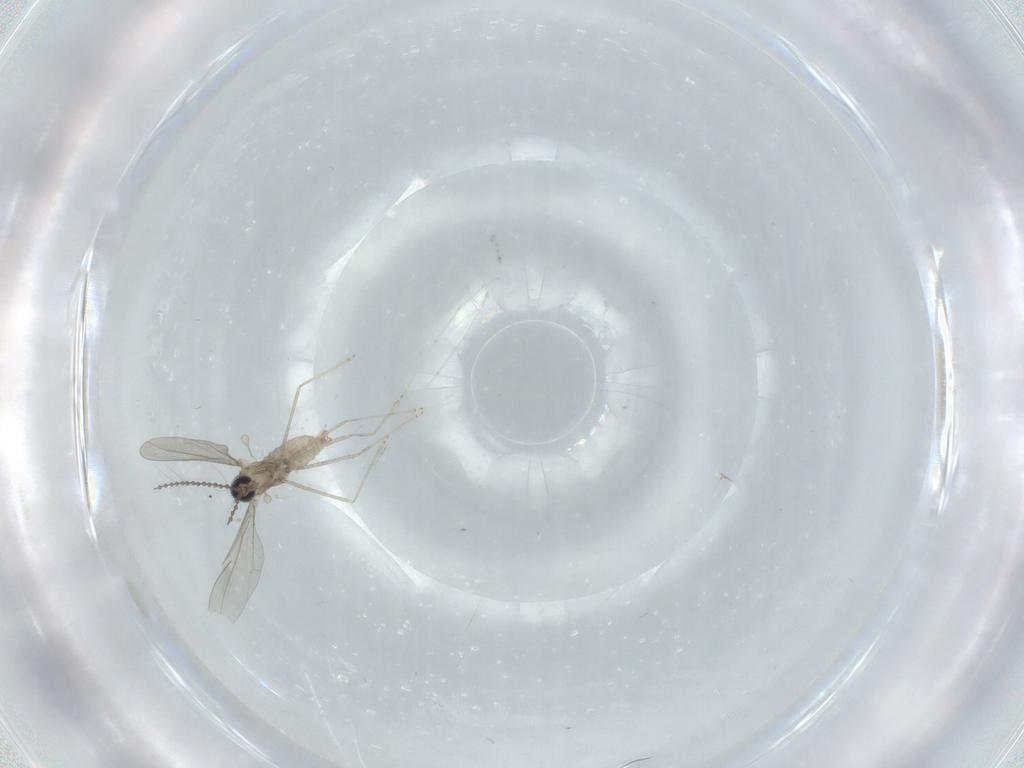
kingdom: Animalia
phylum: Arthropoda
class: Insecta
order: Diptera
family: Cecidomyiidae
